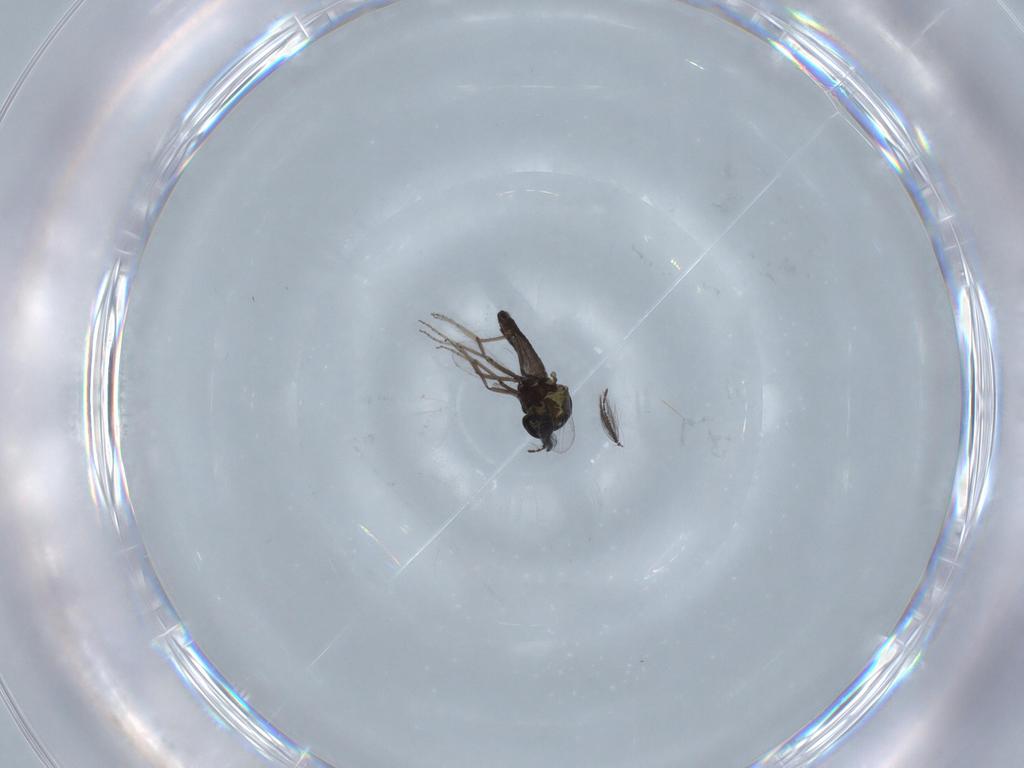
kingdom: Animalia
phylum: Arthropoda
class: Insecta
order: Diptera
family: Ceratopogonidae
